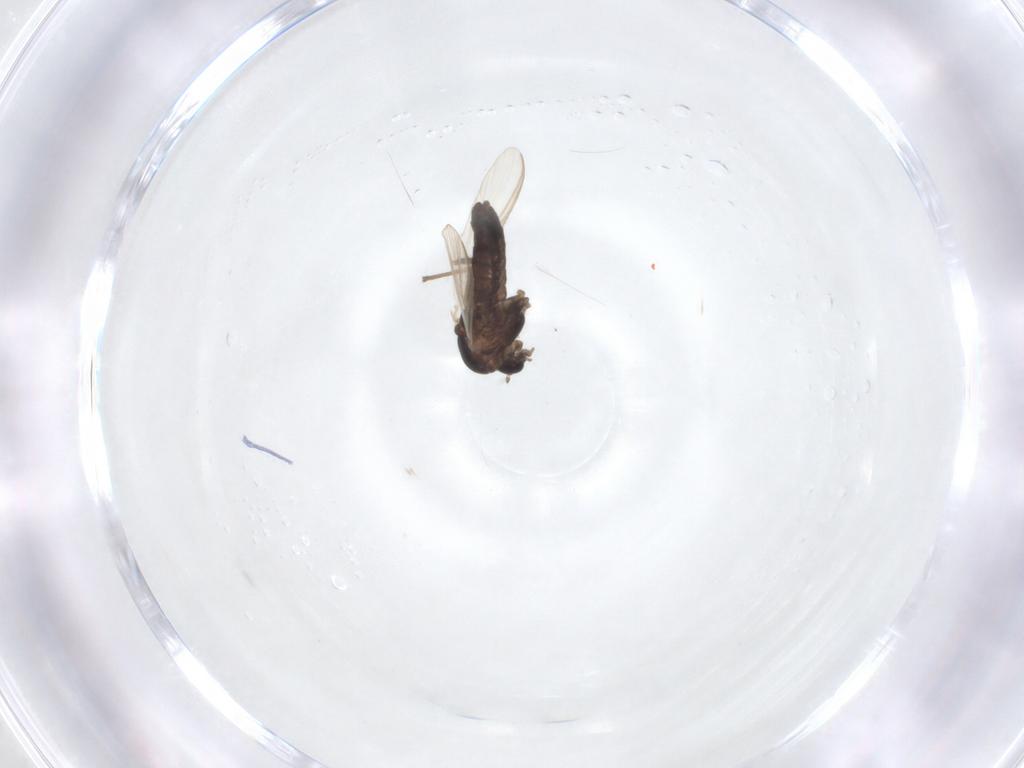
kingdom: Animalia
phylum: Arthropoda
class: Insecta
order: Diptera
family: Chironomidae
